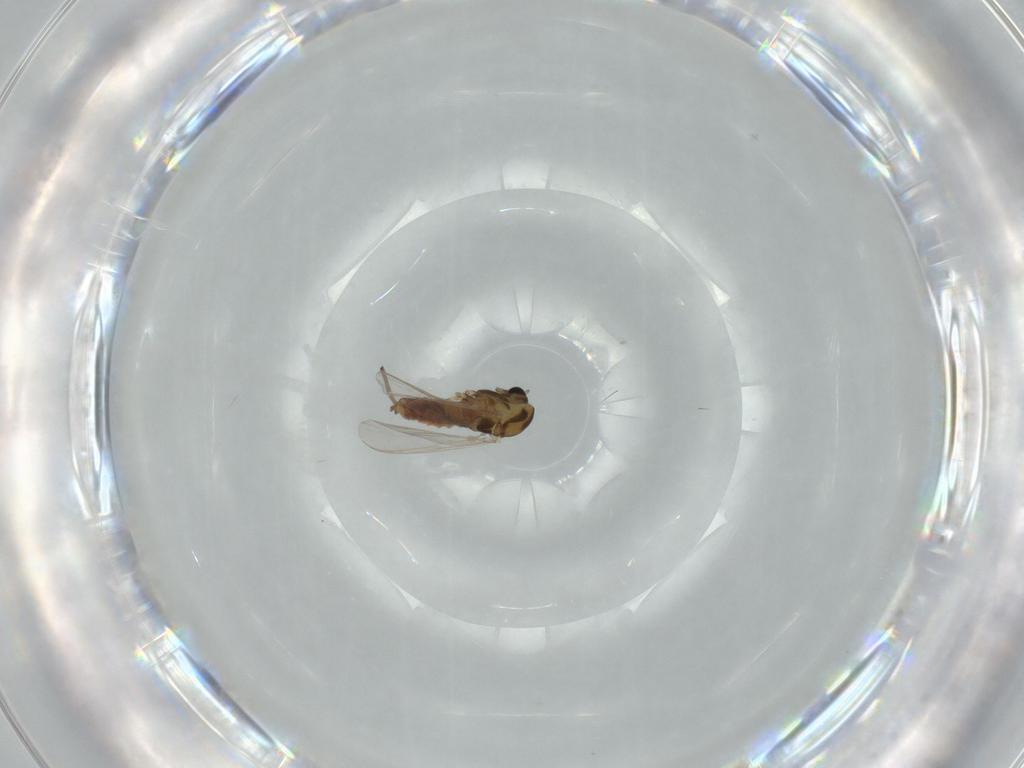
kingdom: Animalia
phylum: Arthropoda
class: Insecta
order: Diptera
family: Chironomidae
